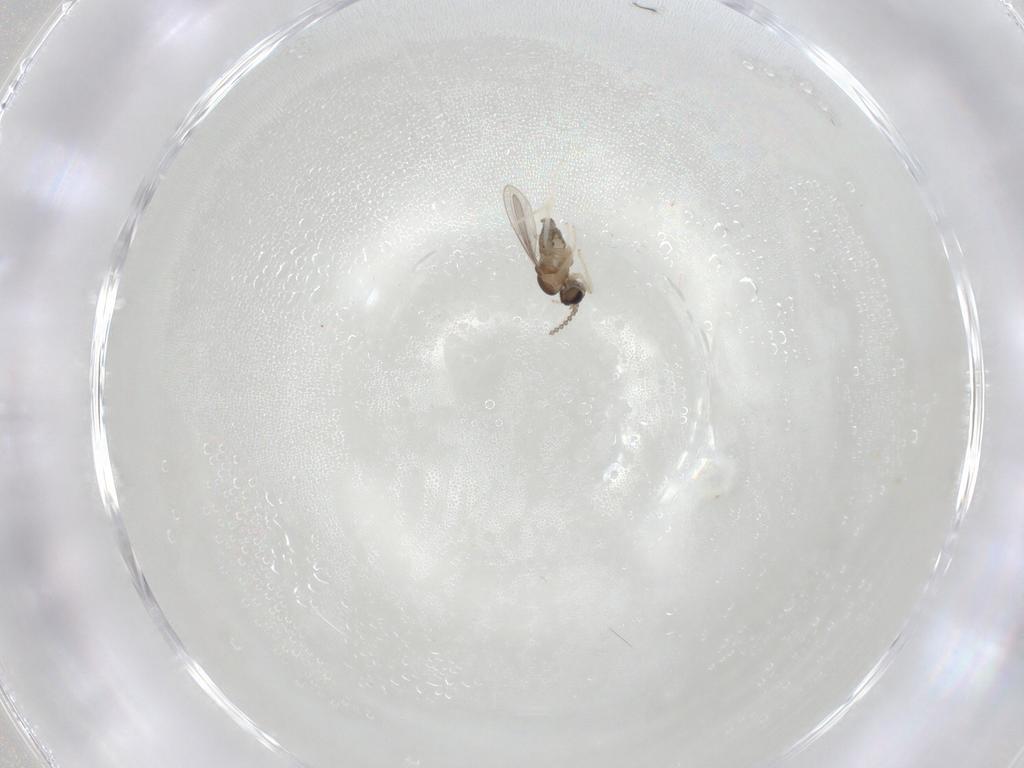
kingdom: Animalia
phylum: Arthropoda
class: Insecta
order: Diptera
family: Cecidomyiidae
